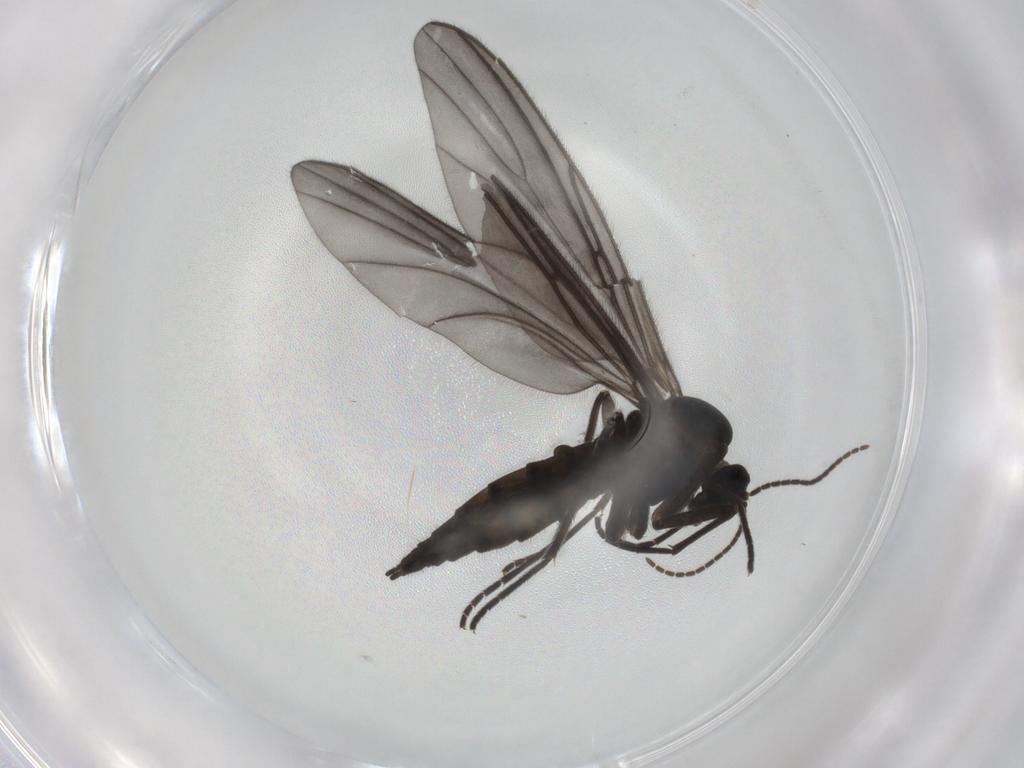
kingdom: Animalia
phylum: Arthropoda
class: Insecta
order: Diptera
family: Sciaridae
